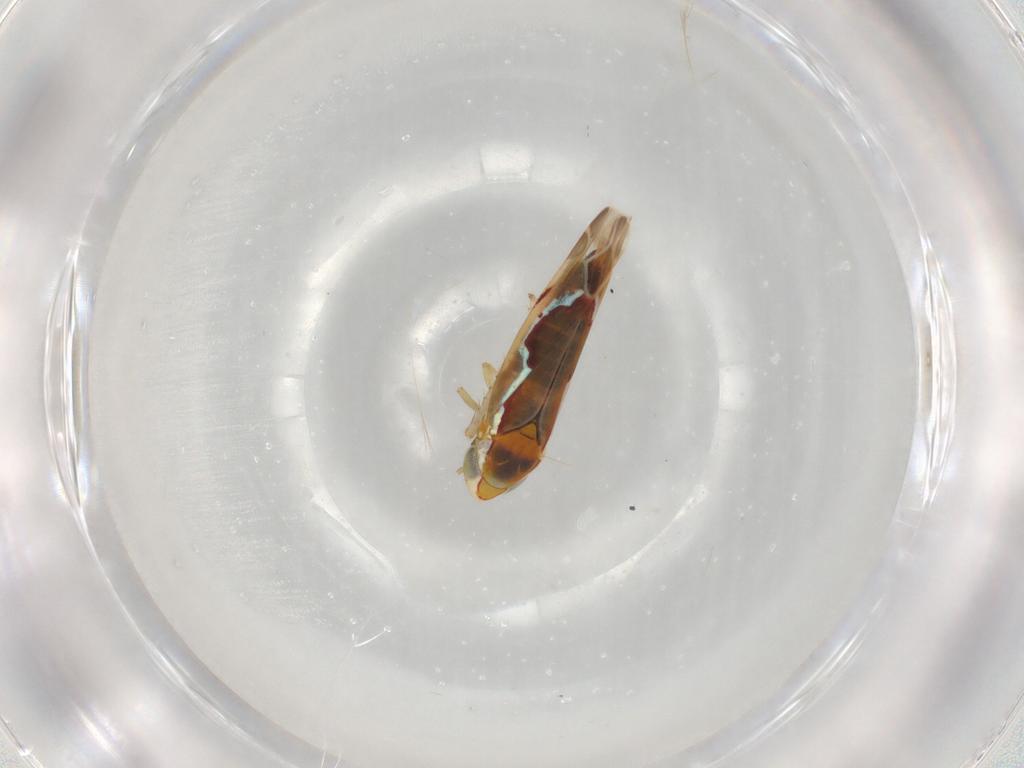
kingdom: Animalia
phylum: Arthropoda
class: Insecta
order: Hemiptera
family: Cicadellidae
